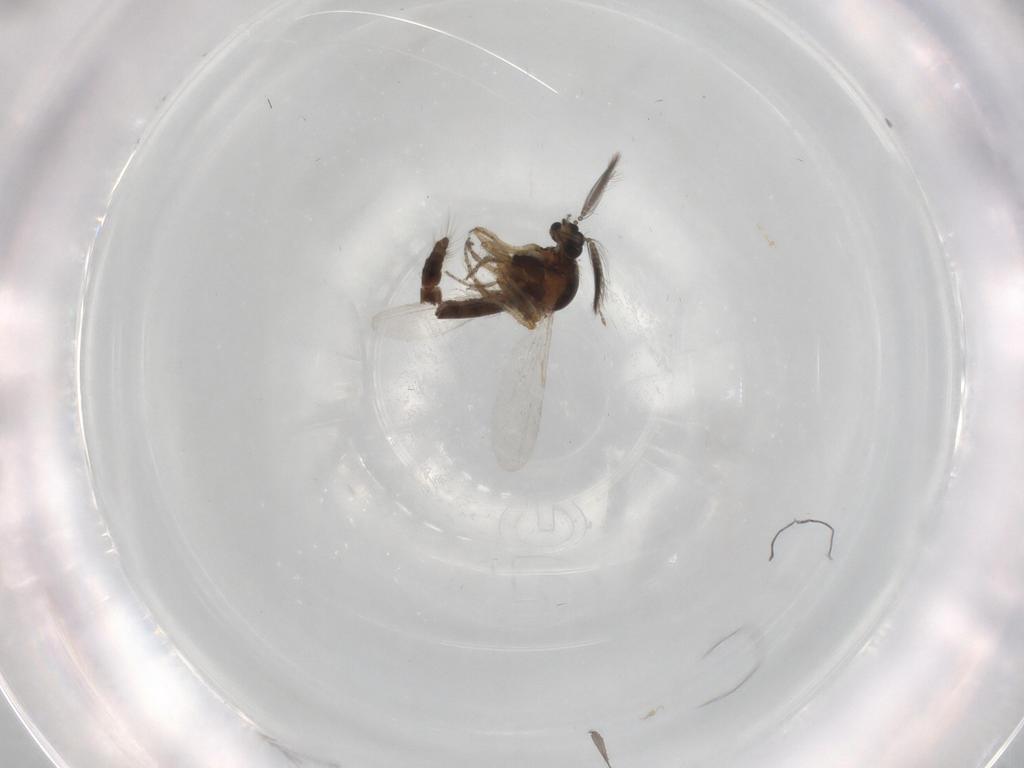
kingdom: Animalia
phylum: Arthropoda
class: Insecta
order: Diptera
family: Ceratopogonidae
